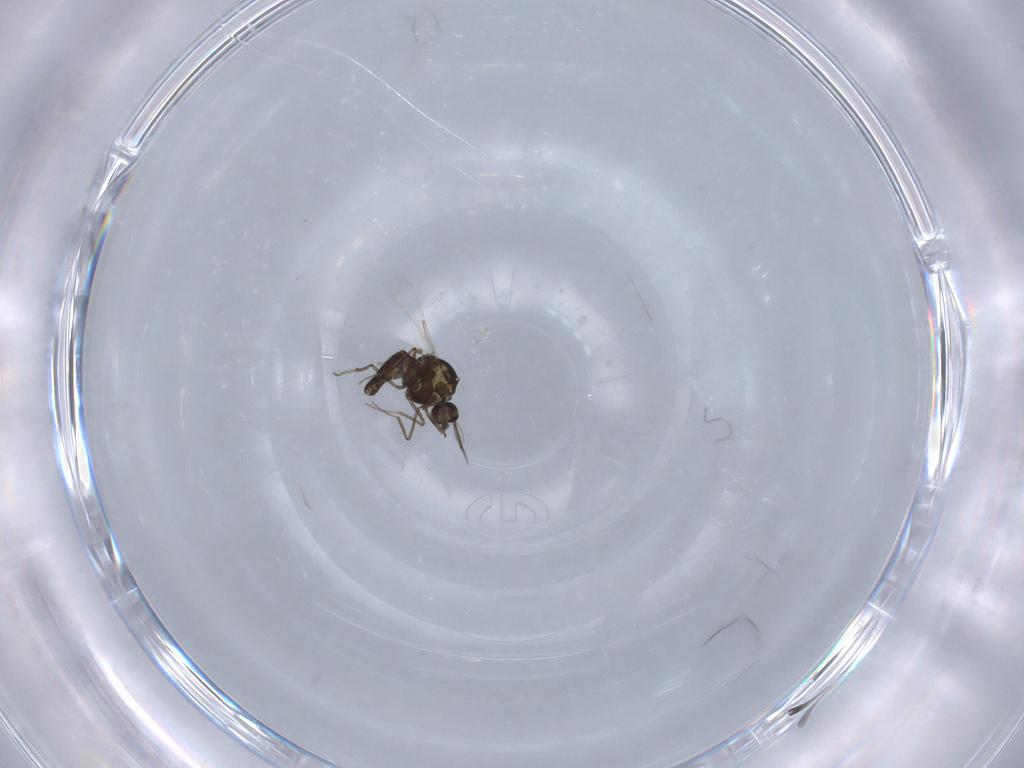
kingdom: Animalia
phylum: Arthropoda
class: Insecta
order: Diptera
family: Ceratopogonidae
